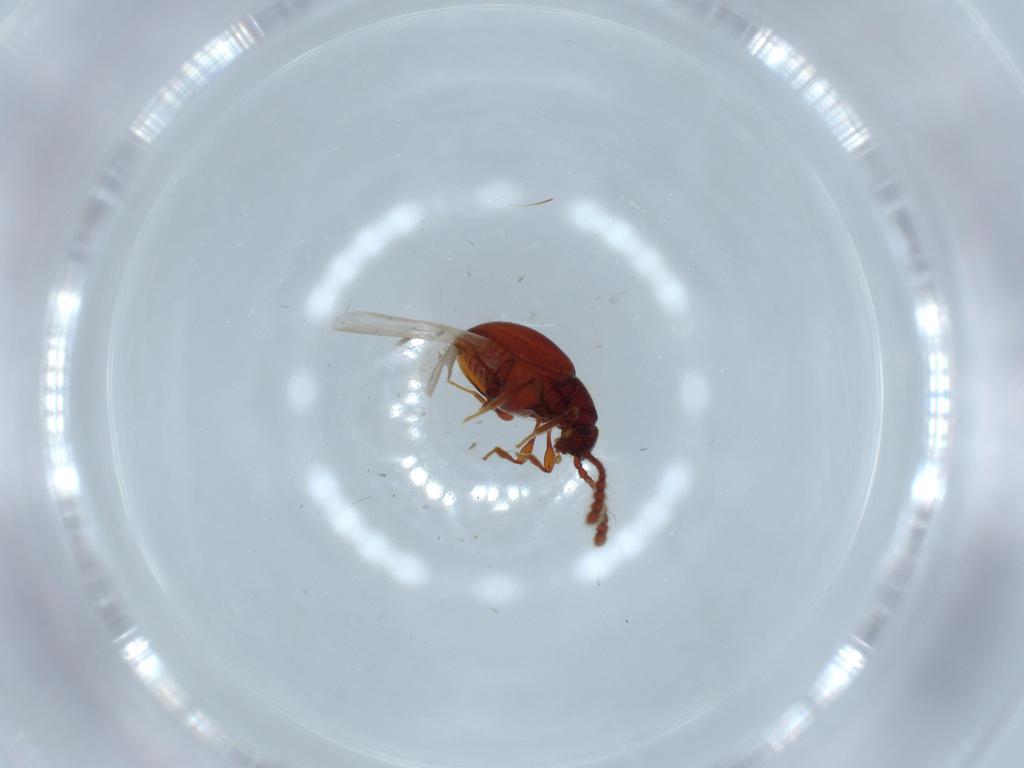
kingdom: Animalia
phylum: Arthropoda
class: Insecta
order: Coleoptera
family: Staphylinidae
